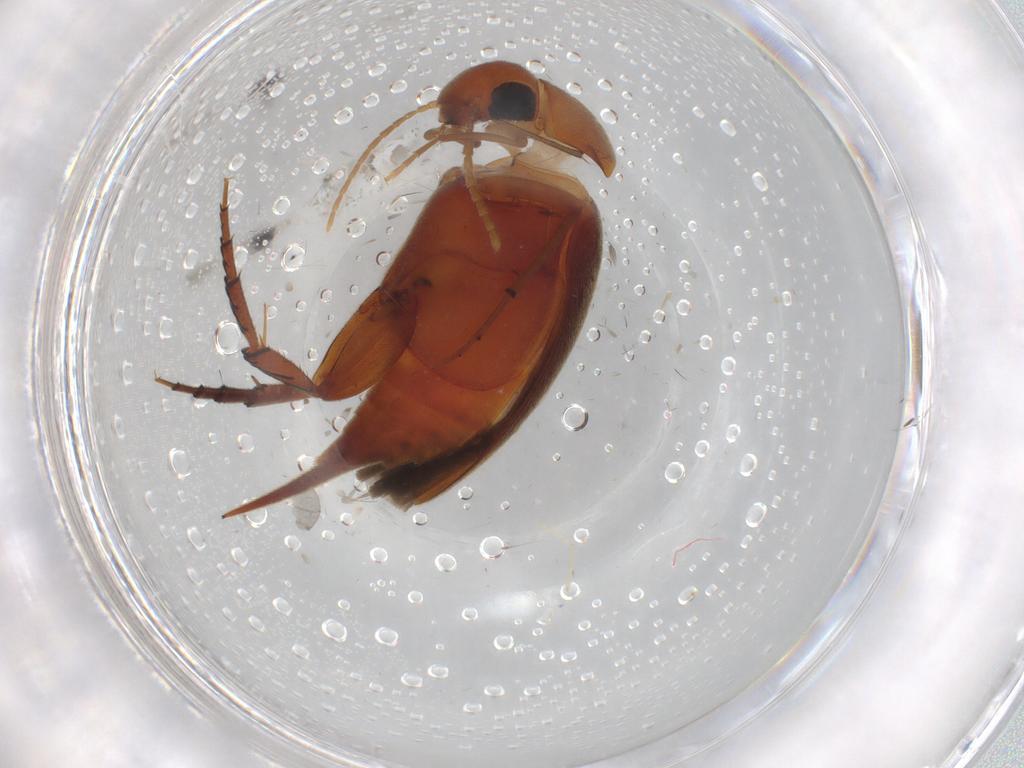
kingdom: Animalia
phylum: Arthropoda
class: Insecta
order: Coleoptera
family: Mordellidae
